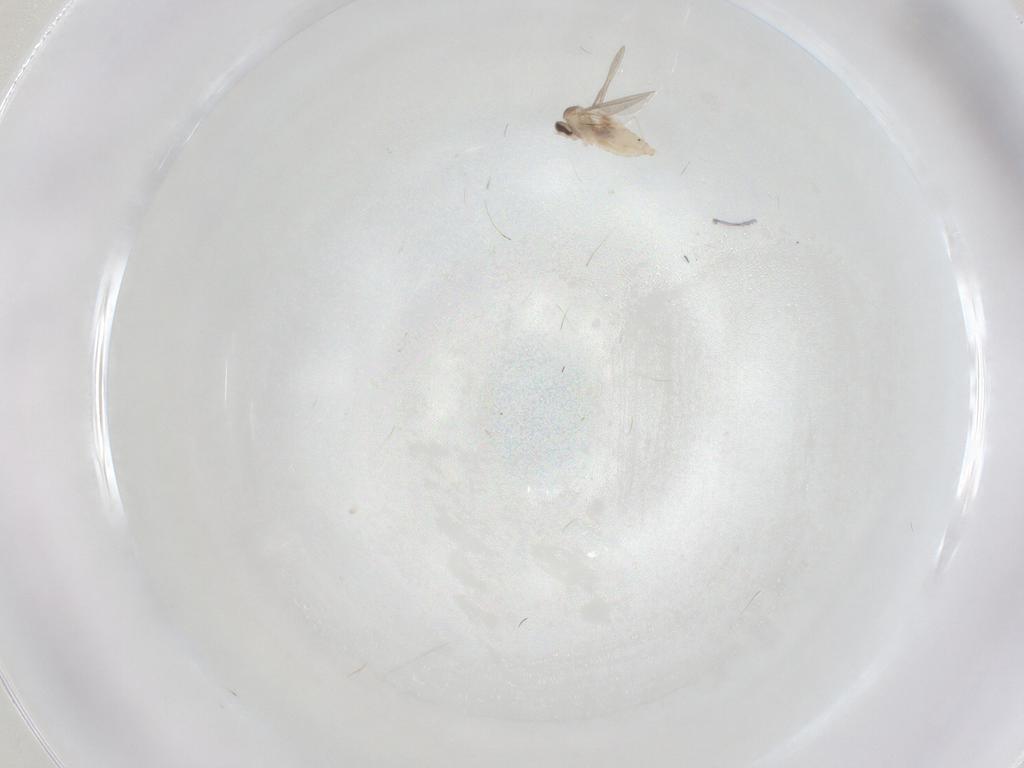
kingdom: Animalia
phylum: Arthropoda
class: Insecta
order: Diptera
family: Cecidomyiidae
